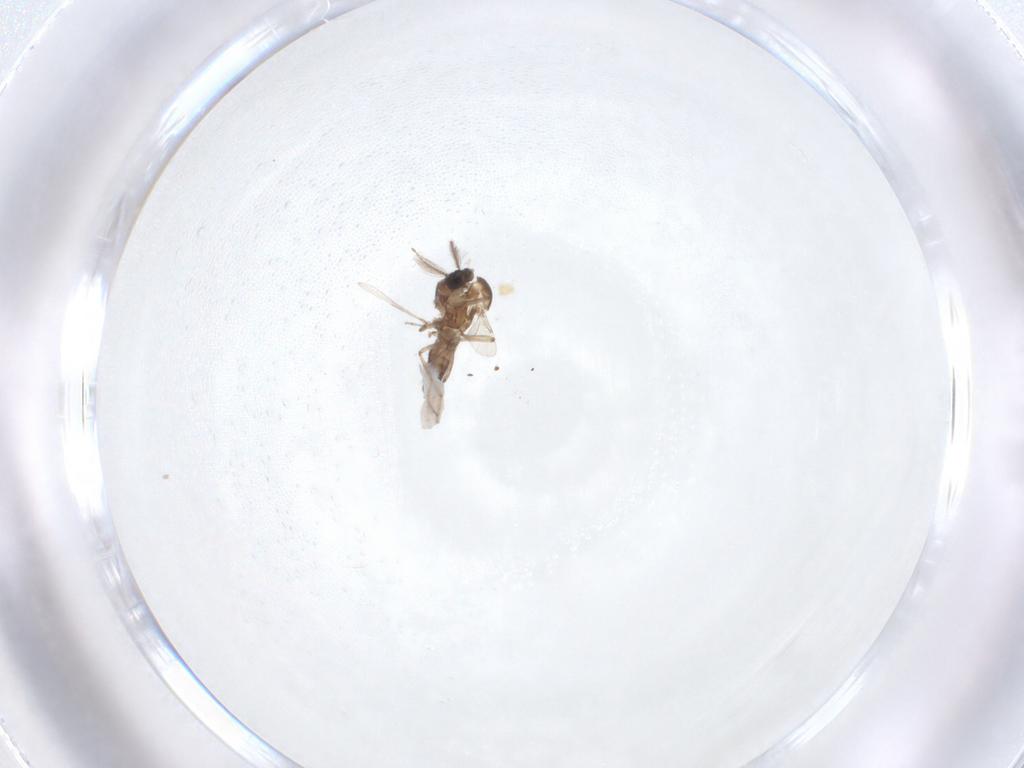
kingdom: Animalia
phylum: Arthropoda
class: Insecta
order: Diptera
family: Ceratopogonidae
